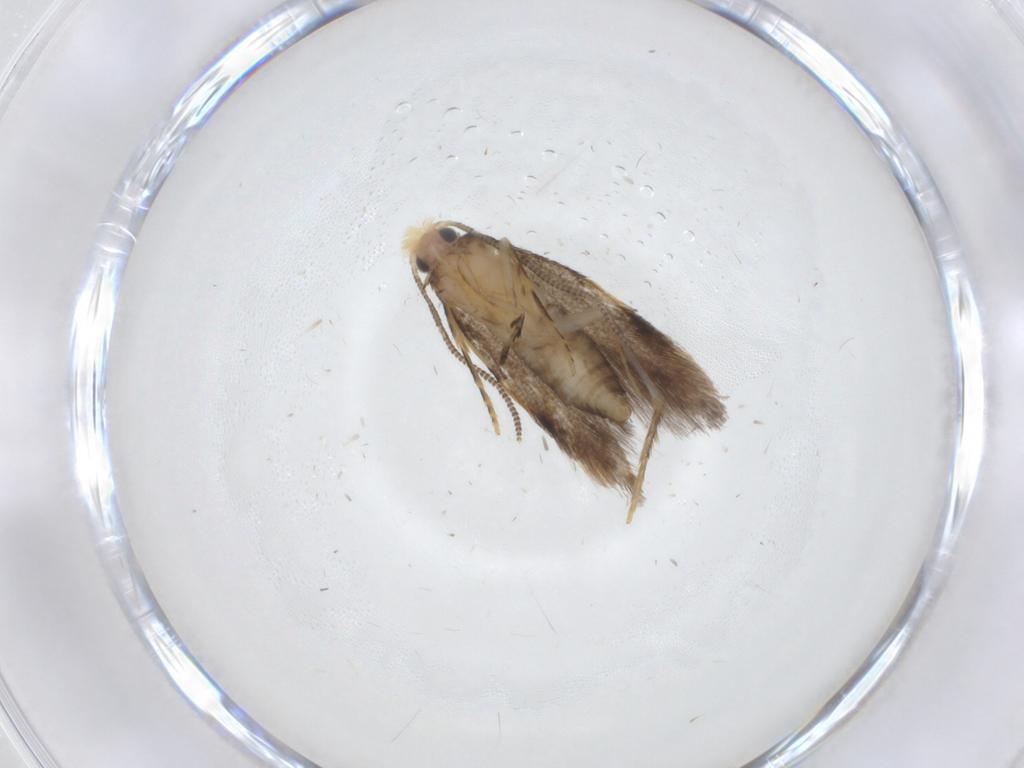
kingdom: Animalia
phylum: Arthropoda
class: Insecta
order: Lepidoptera
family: Tineidae
